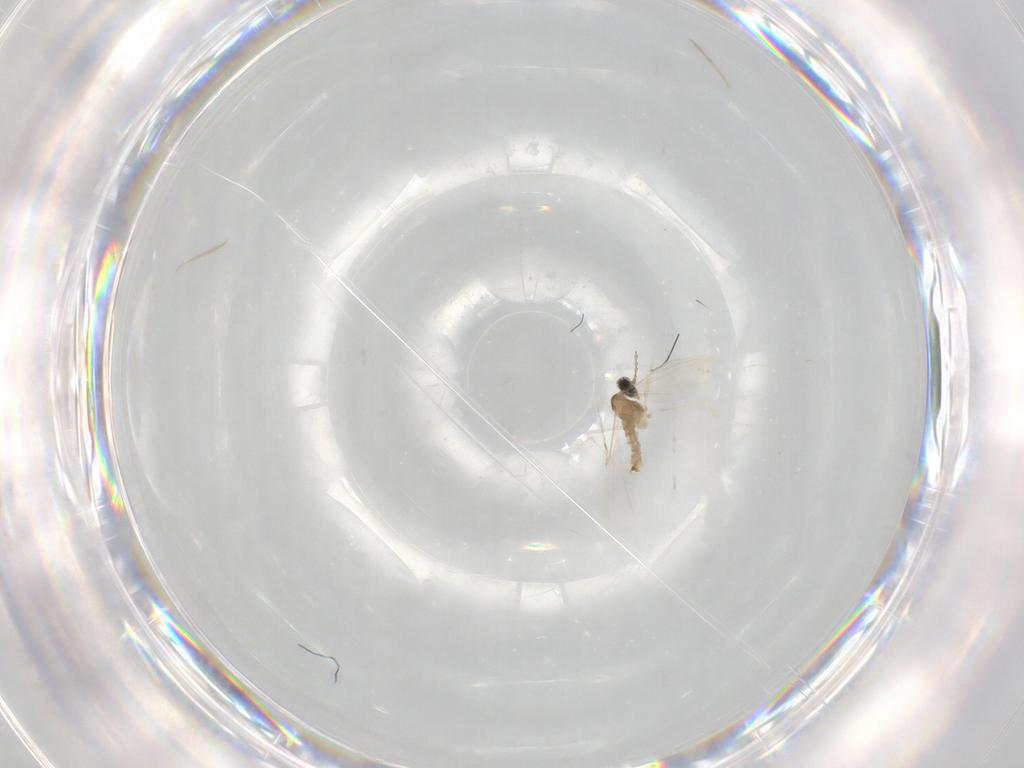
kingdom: Animalia
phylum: Arthropoda
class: Insecta
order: Diptera
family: Cecidomyiidae
